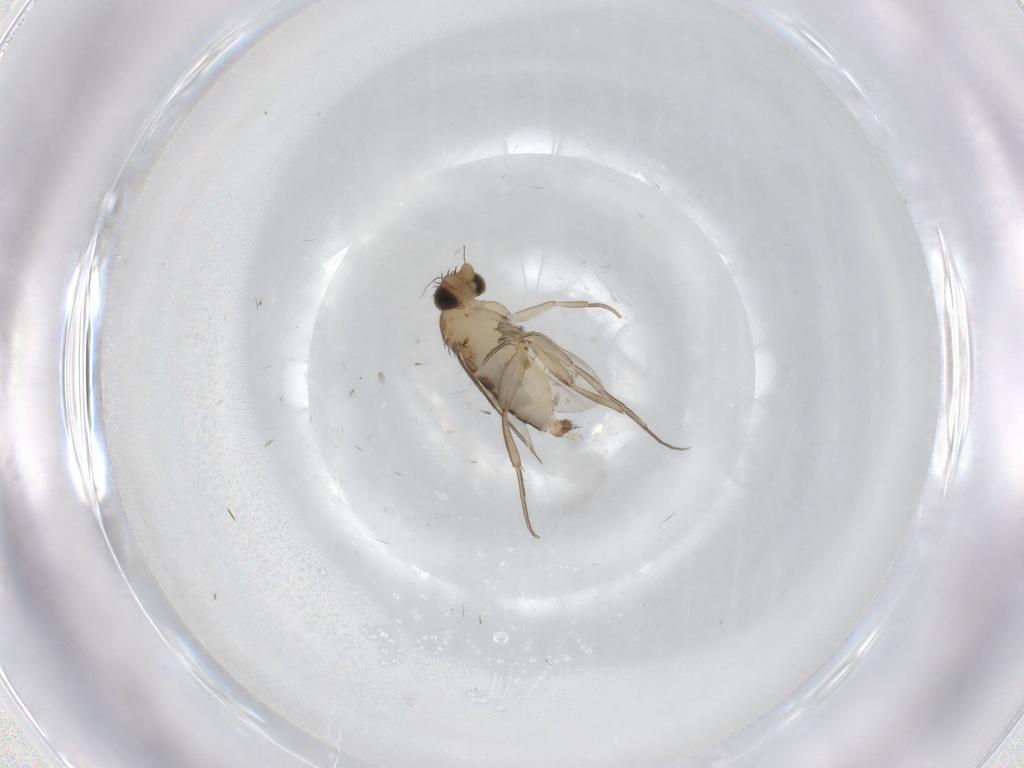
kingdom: Animalia
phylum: Arthropoda
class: Insecta
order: Diptera
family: Phoridae
